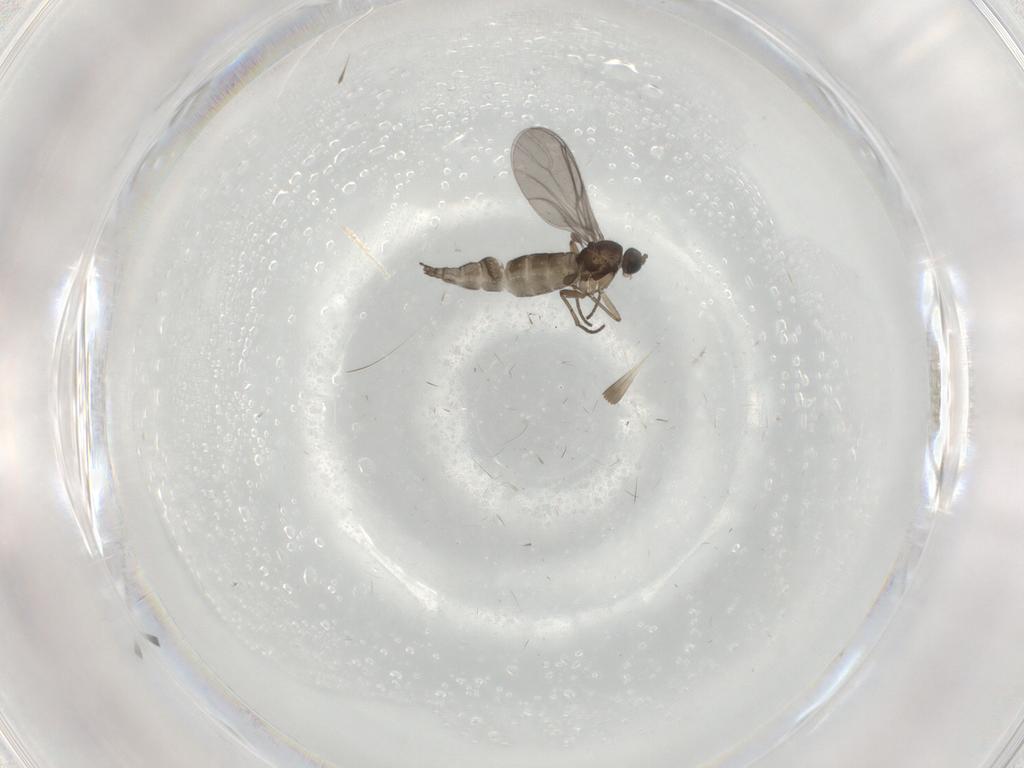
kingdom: Animalia
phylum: Arthropoda
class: Insecta
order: Diptera
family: Sciaridae
